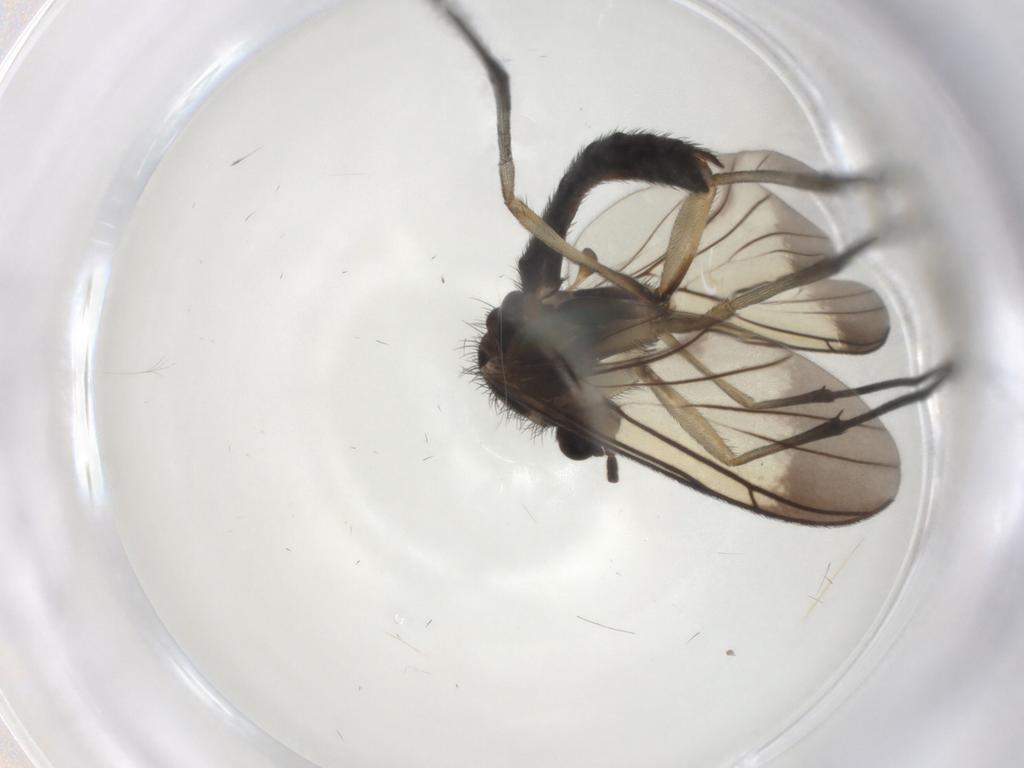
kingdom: Animalia
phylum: Arthropoda
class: Insecta
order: Diptera
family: Keroplatidae
